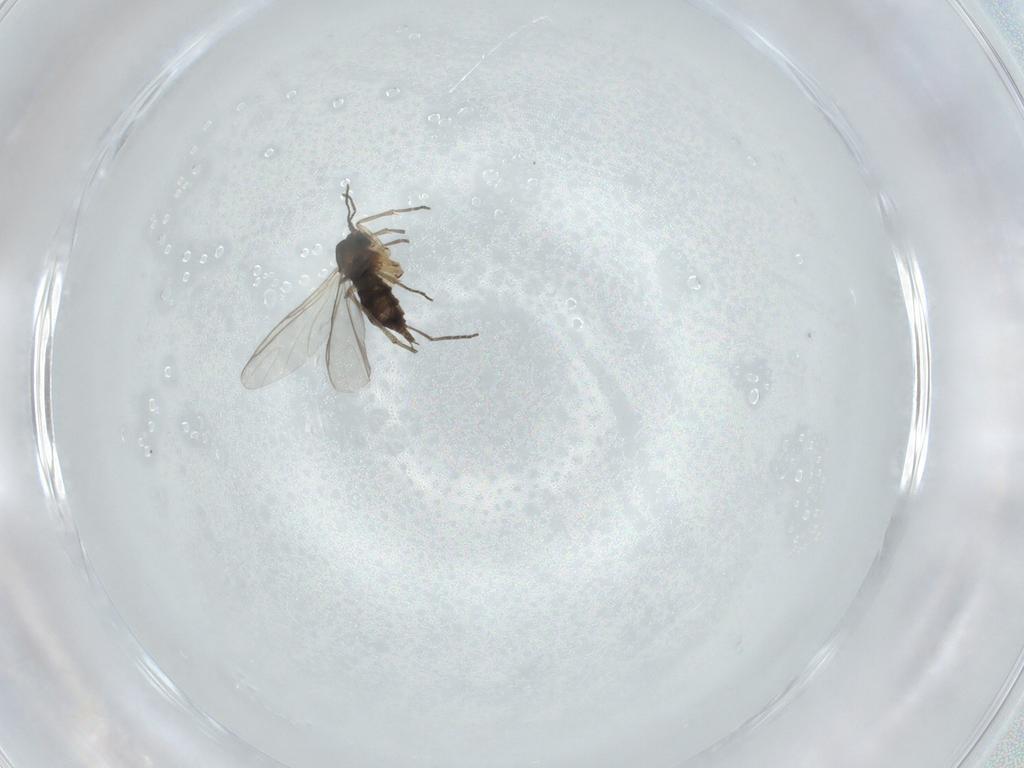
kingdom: Animalia
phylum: Arthropoda
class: Insecta
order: Diptera
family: Sciaridae
